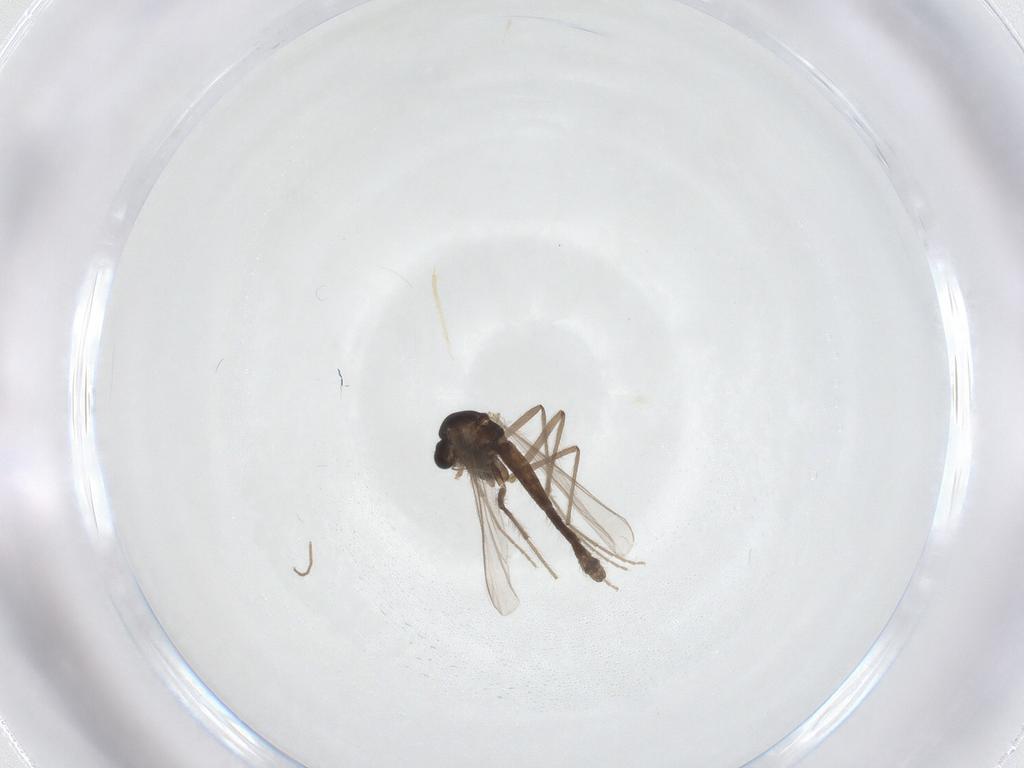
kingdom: Animalia
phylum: Arthropoda
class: Insecta
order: Diptera
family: Chironomidae
